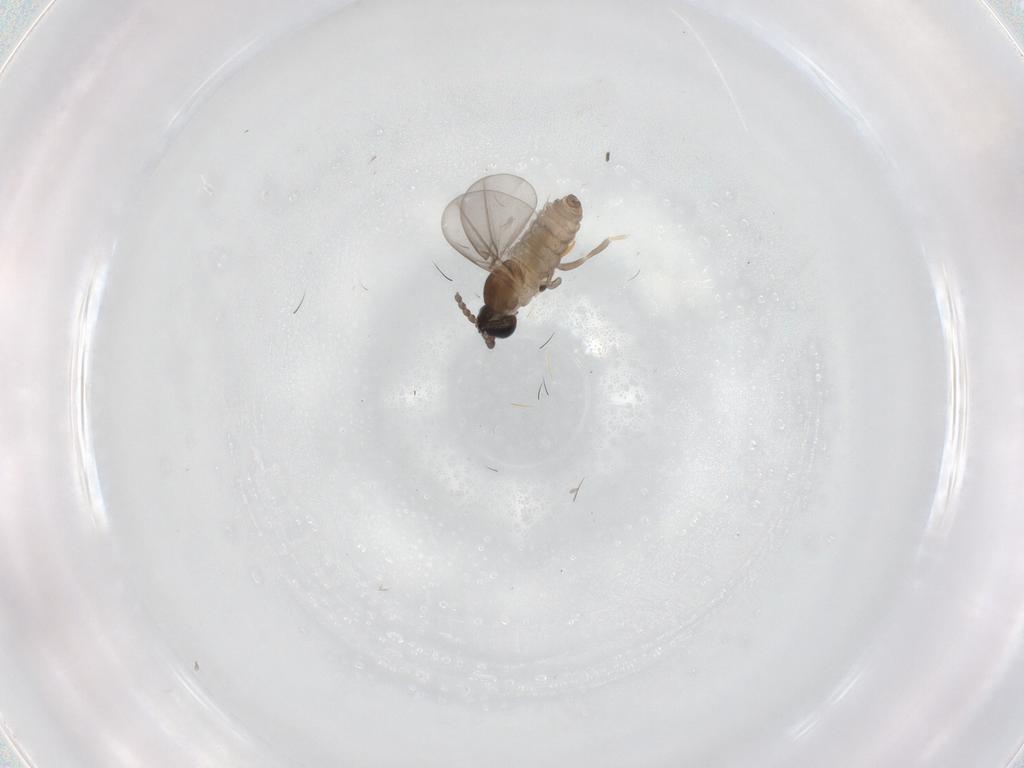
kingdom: Animalia
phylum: Arthropoda
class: Insecta
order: Diptera
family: Cecidomyiidae
